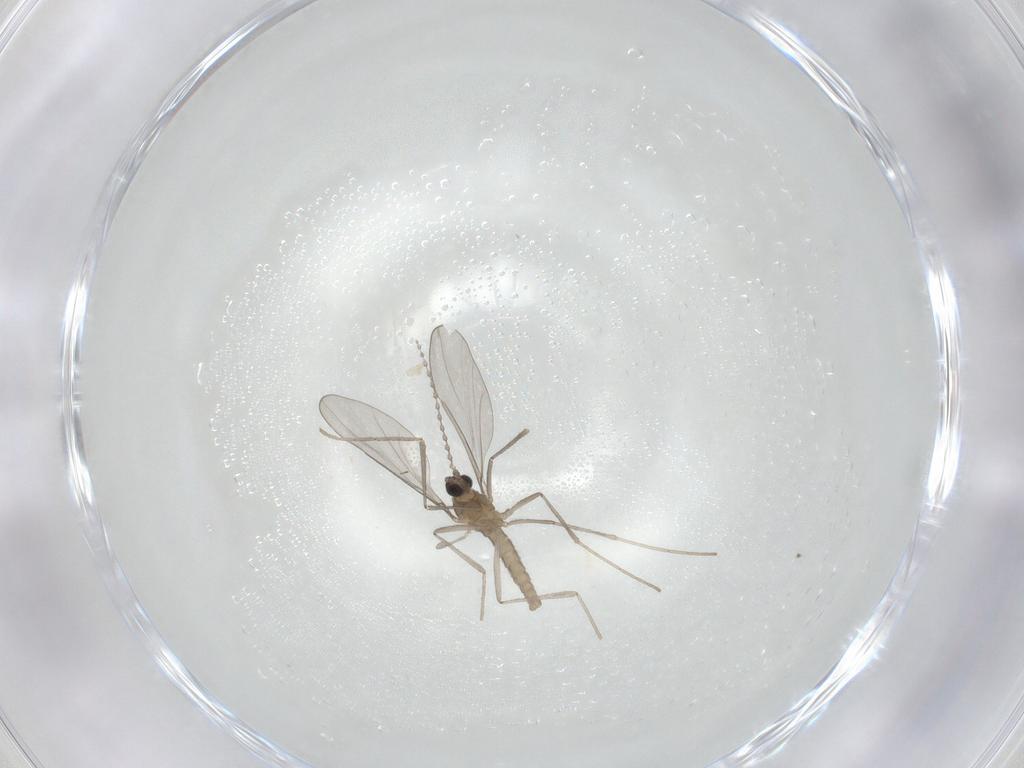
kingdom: Animalia
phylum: Arthropoda
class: Insecta
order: Diptera
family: Cecidomyiidae
